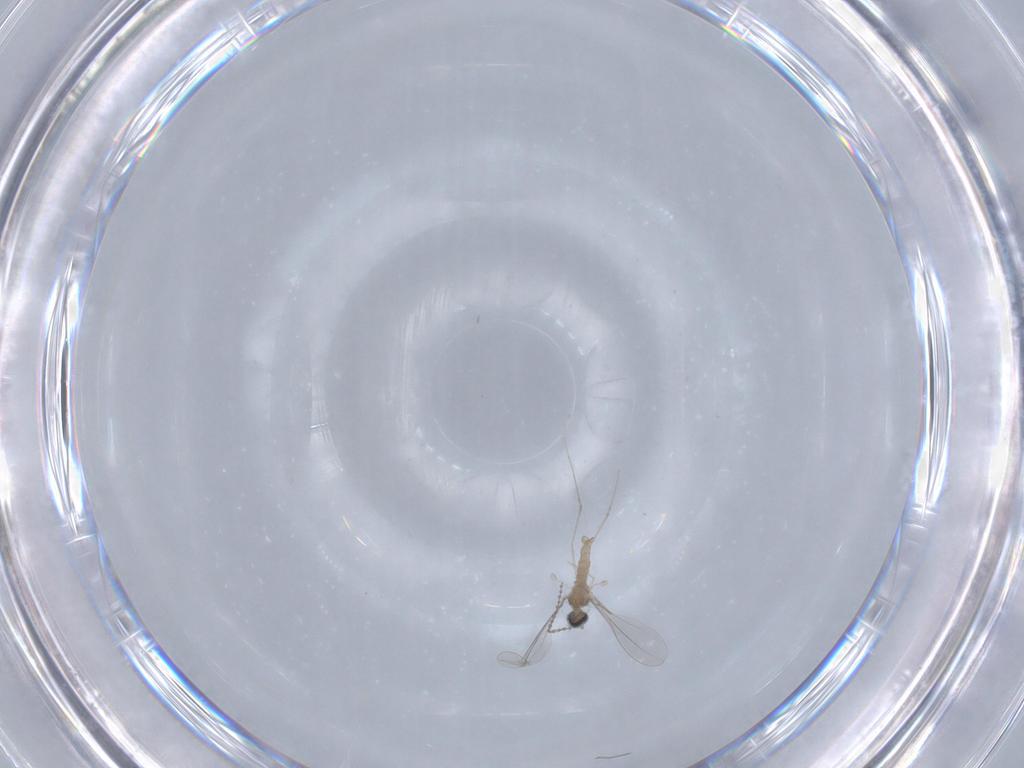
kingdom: Animalia
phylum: Arthropoda
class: Insecta
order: Diptera
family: Cecidomyiidae
